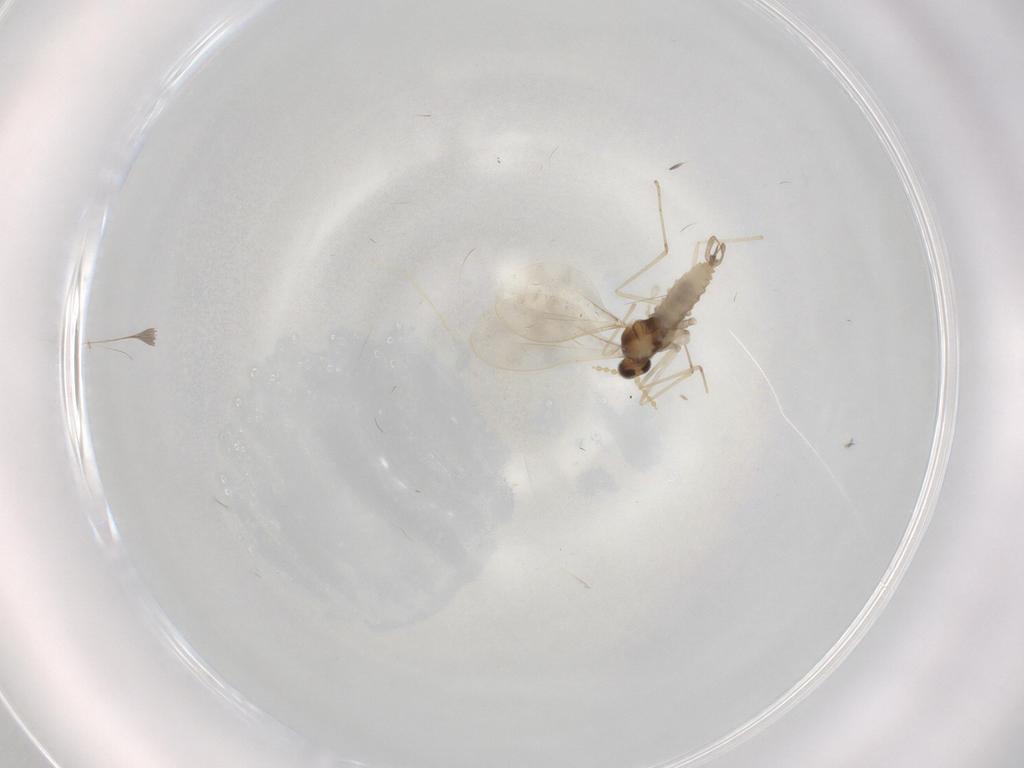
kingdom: Animalia
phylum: Arthropoda
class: Insecta
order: Diptera
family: Cecidomyiidae
